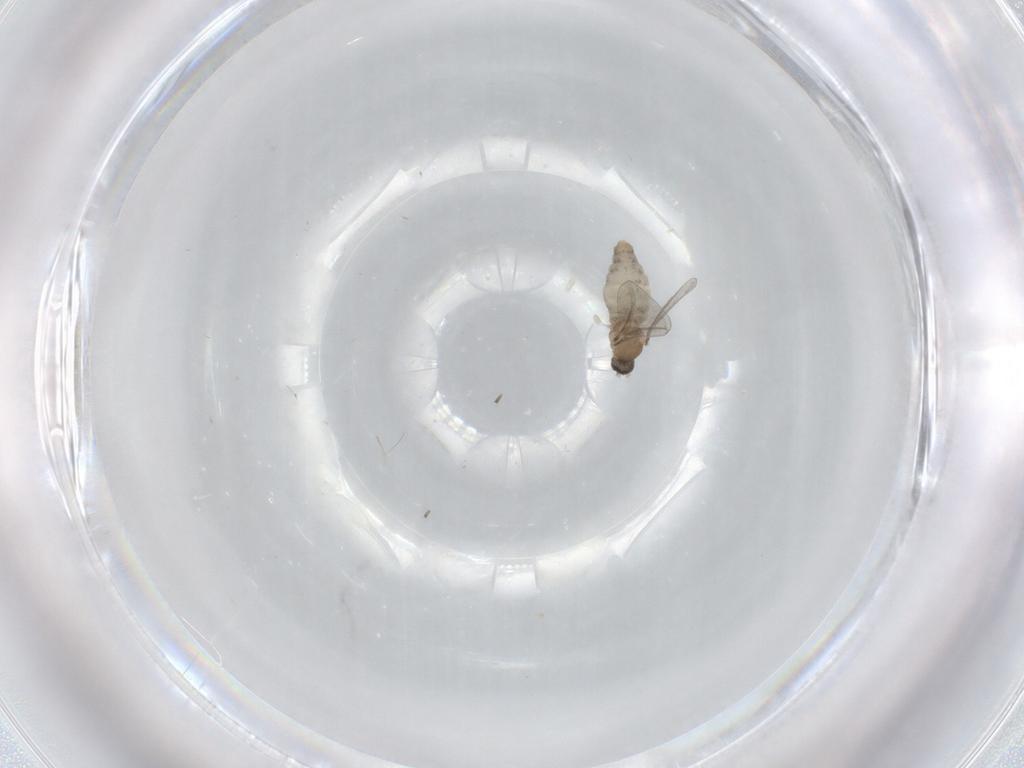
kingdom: Animalia
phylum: Arthropoda
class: Insecta
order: Diptera
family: Cecidomyiidae
